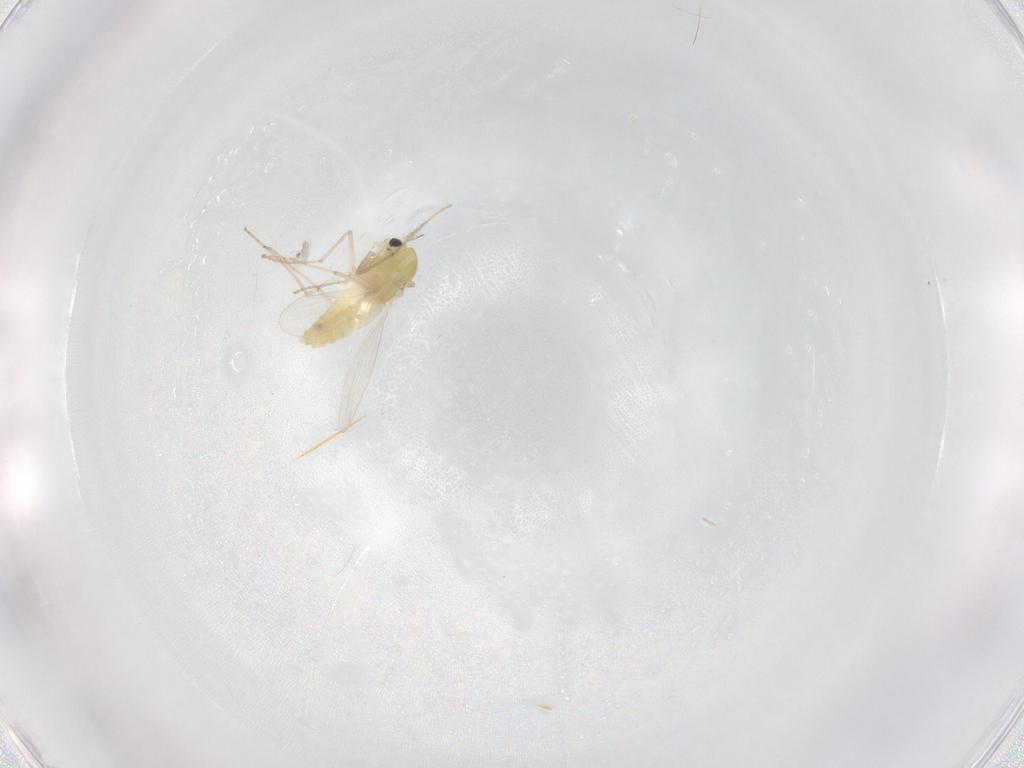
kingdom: Animalia
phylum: Arthropoda
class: Insecta
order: Diptera
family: Chironomidae
